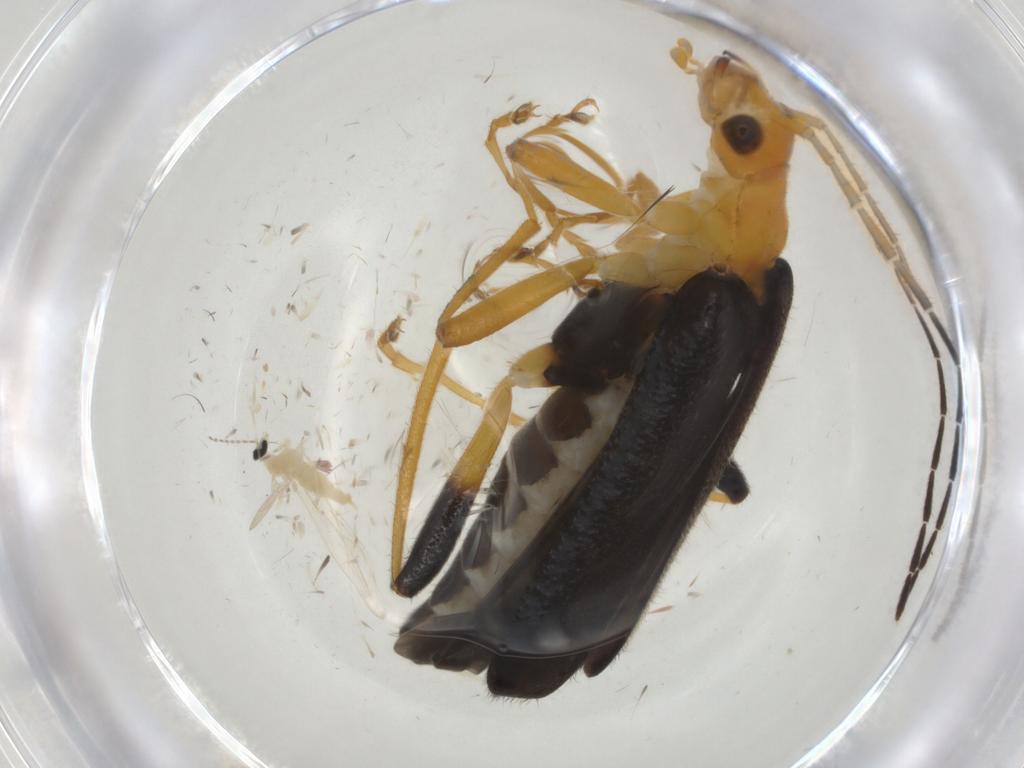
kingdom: Animalia
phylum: Arthropoda
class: Insecta
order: Diptera
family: Cecidomyiidae
